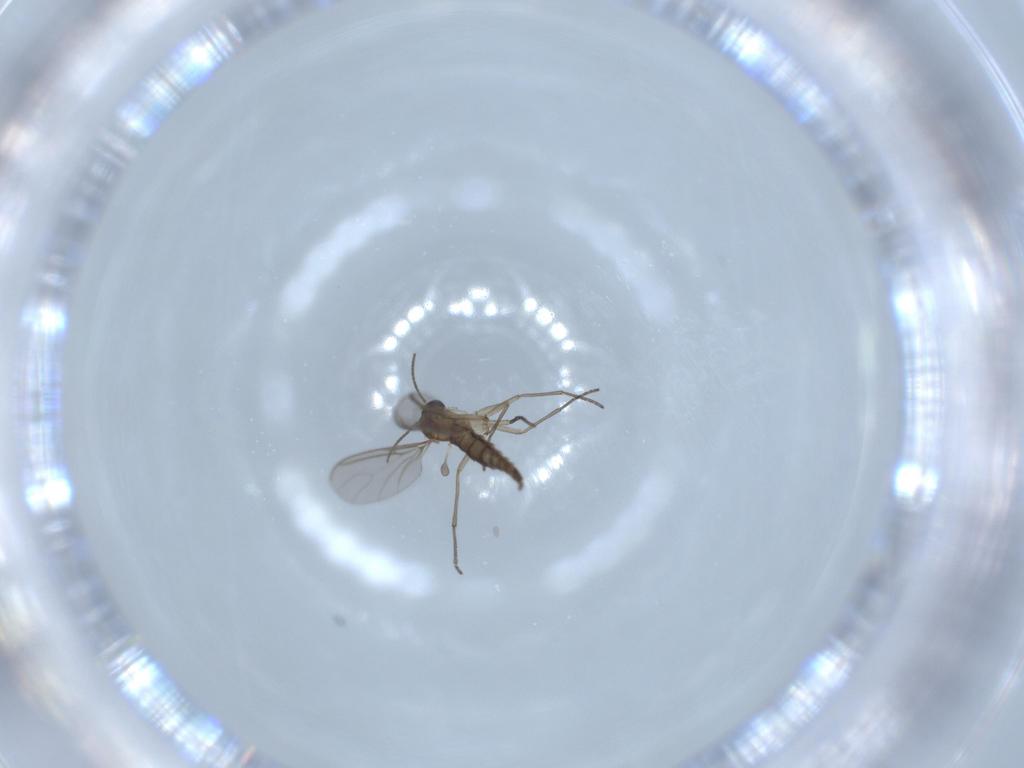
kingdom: Animalia
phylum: Arthropoda
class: Insecta
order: Diptera
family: Sciaridae
